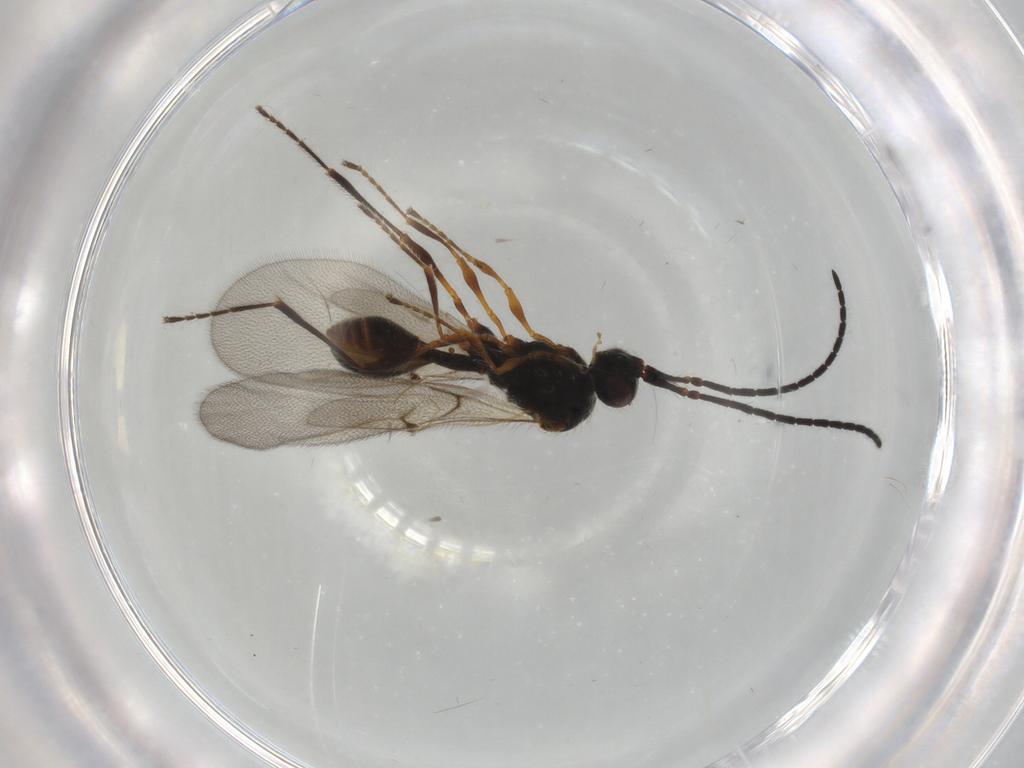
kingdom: Animalia
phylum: Arthropoda
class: Insecta
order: Hymenoptera
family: Diapriidae
